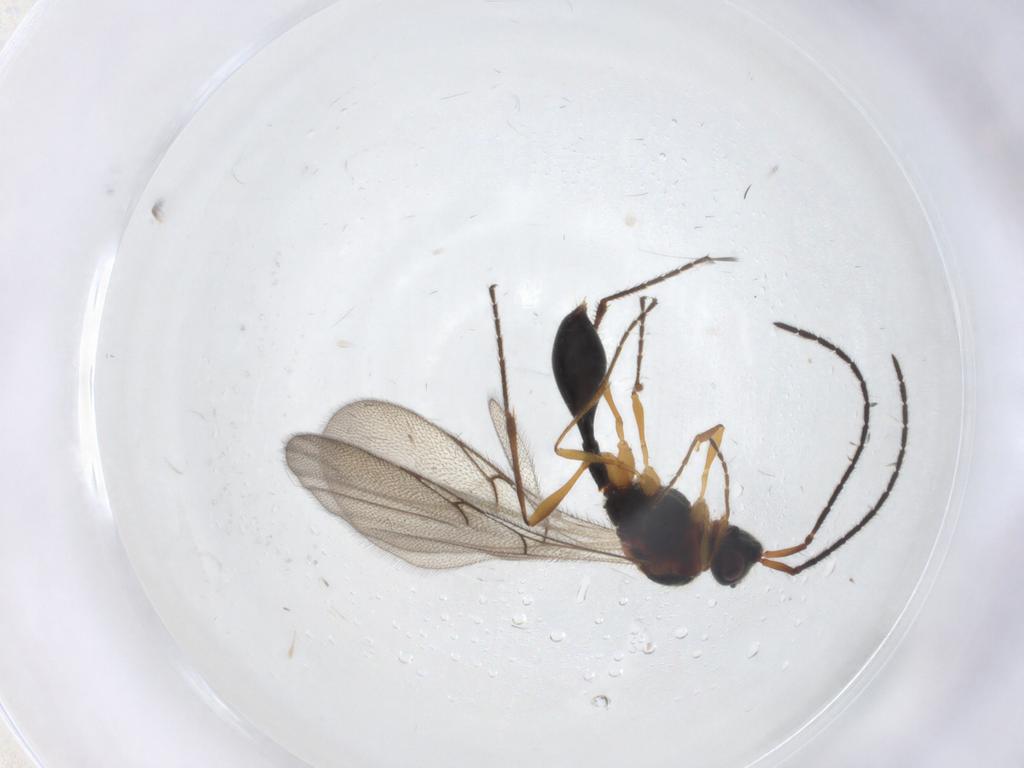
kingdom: Animalia
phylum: Arthropoda
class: Insecta
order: Hymenoptera
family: Diapriidae
